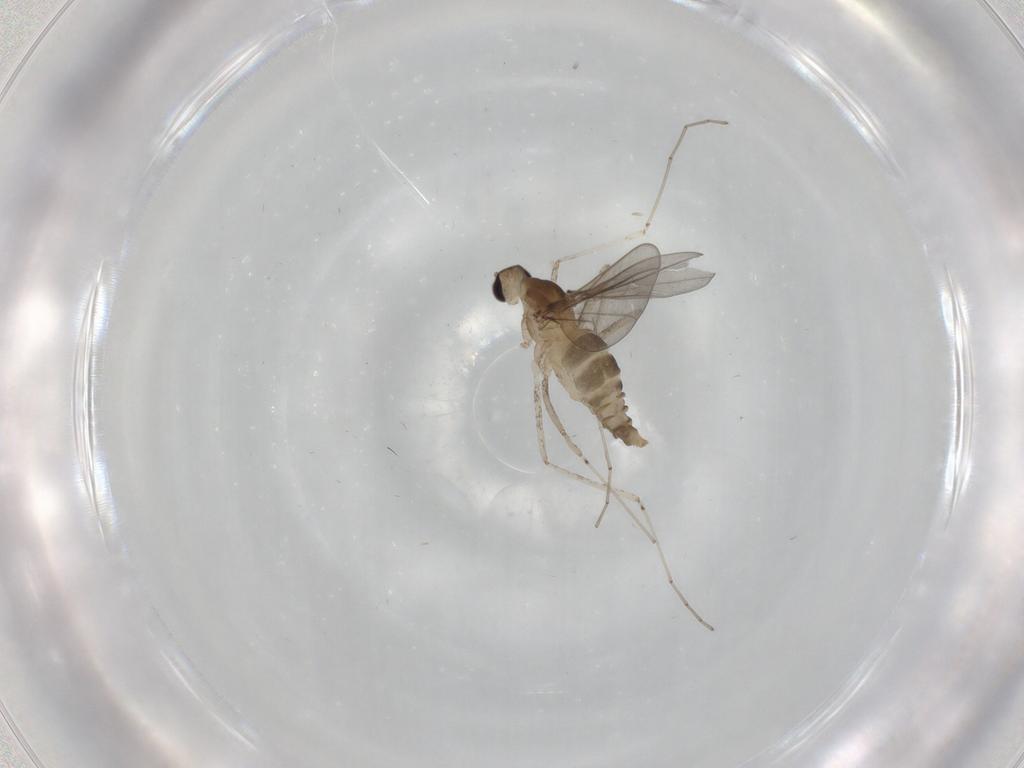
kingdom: Animalia
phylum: Arthropoda
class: Insecta
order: Diptera
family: Cecidomyiidae
